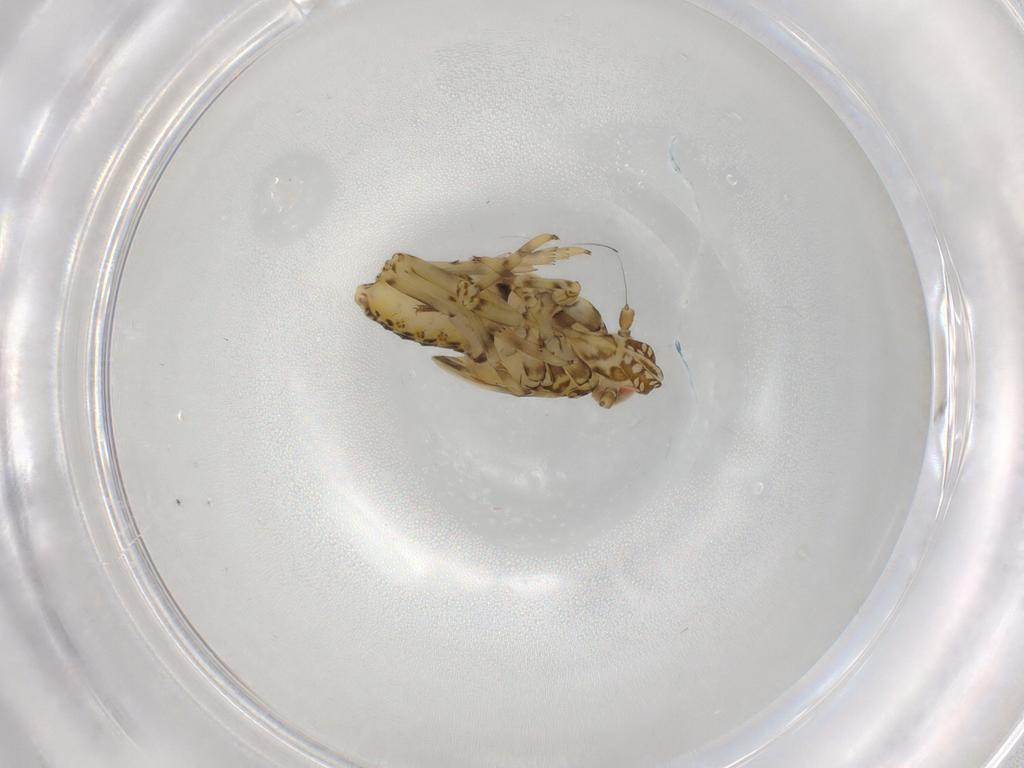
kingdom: Animalia
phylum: Arthropoda
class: Insecta
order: Hemiptera
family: Delphacidae
